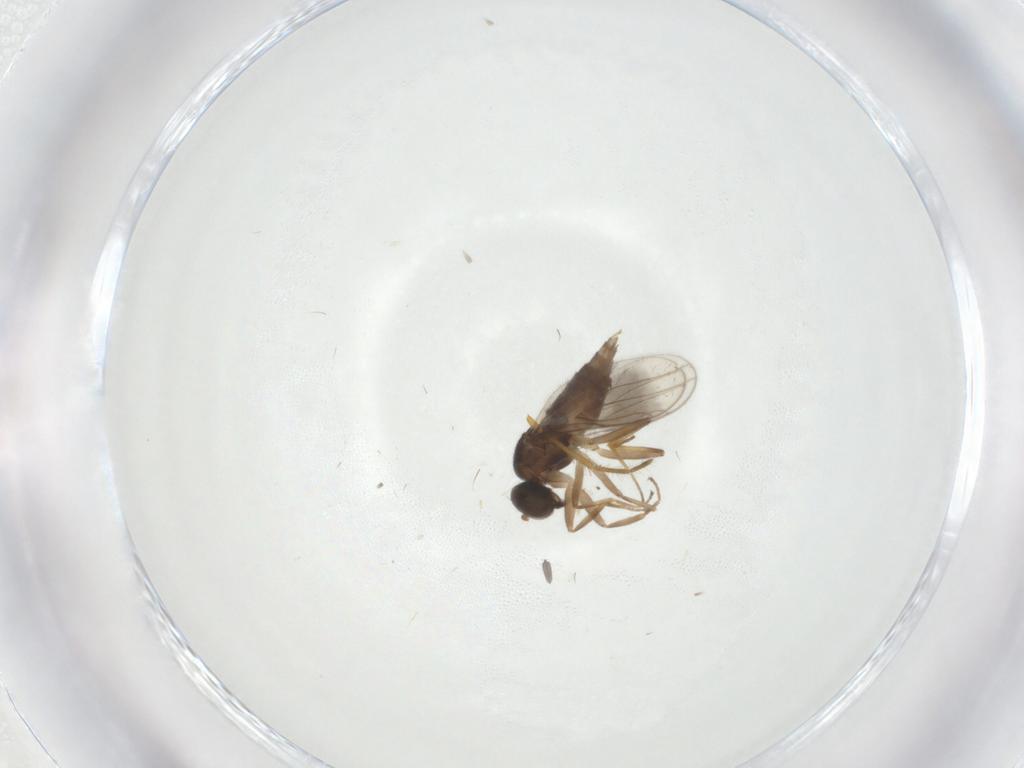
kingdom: Animalia
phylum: Arthropoda
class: Insecta
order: Diptera
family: Hybotidae
